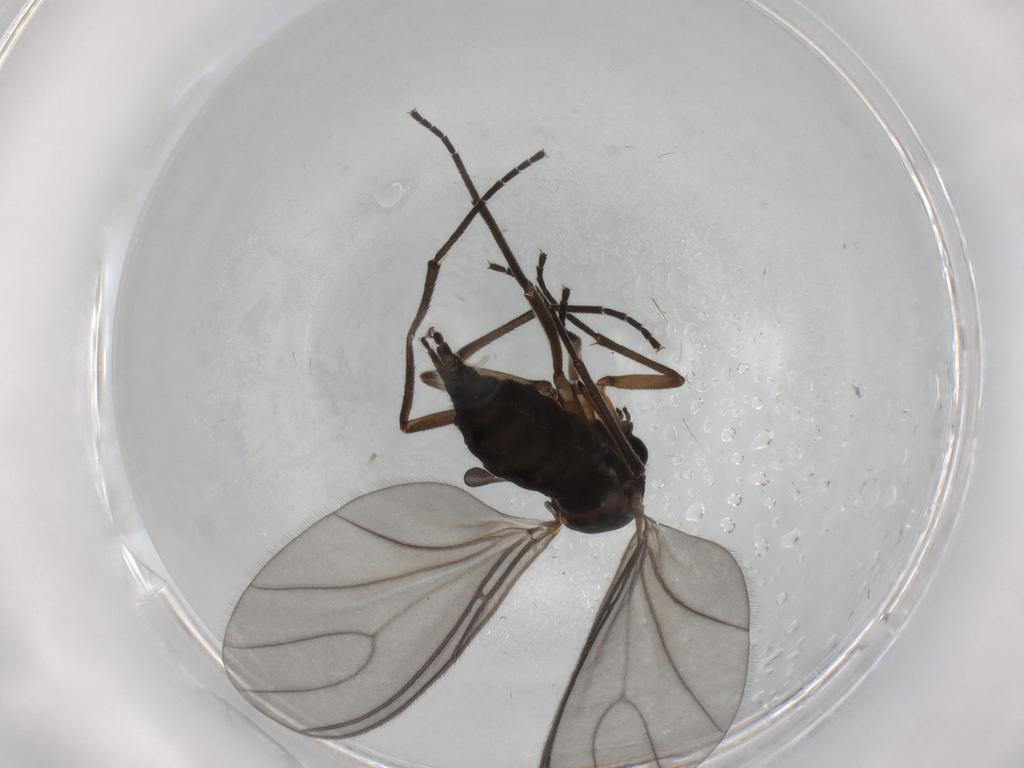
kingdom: Animalia
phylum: Arthropoda
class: Insecta
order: Diptera
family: Sciaridae
